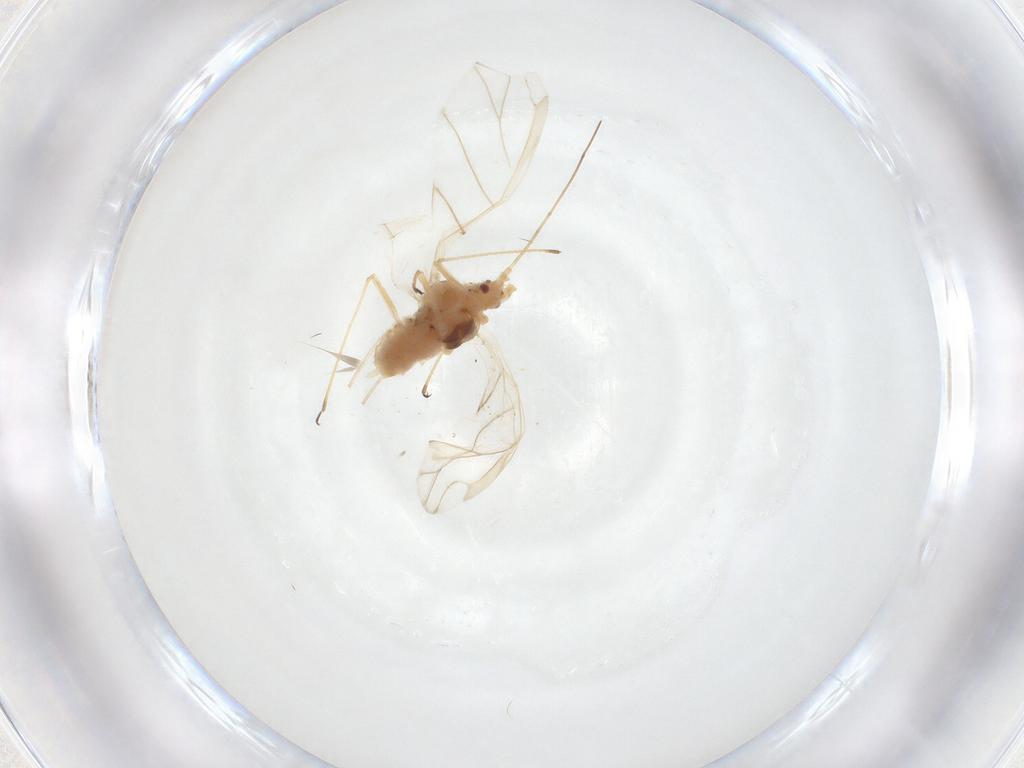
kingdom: Animalia
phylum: Arthropoda
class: Insecta
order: Hemiptera
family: Aphididae
